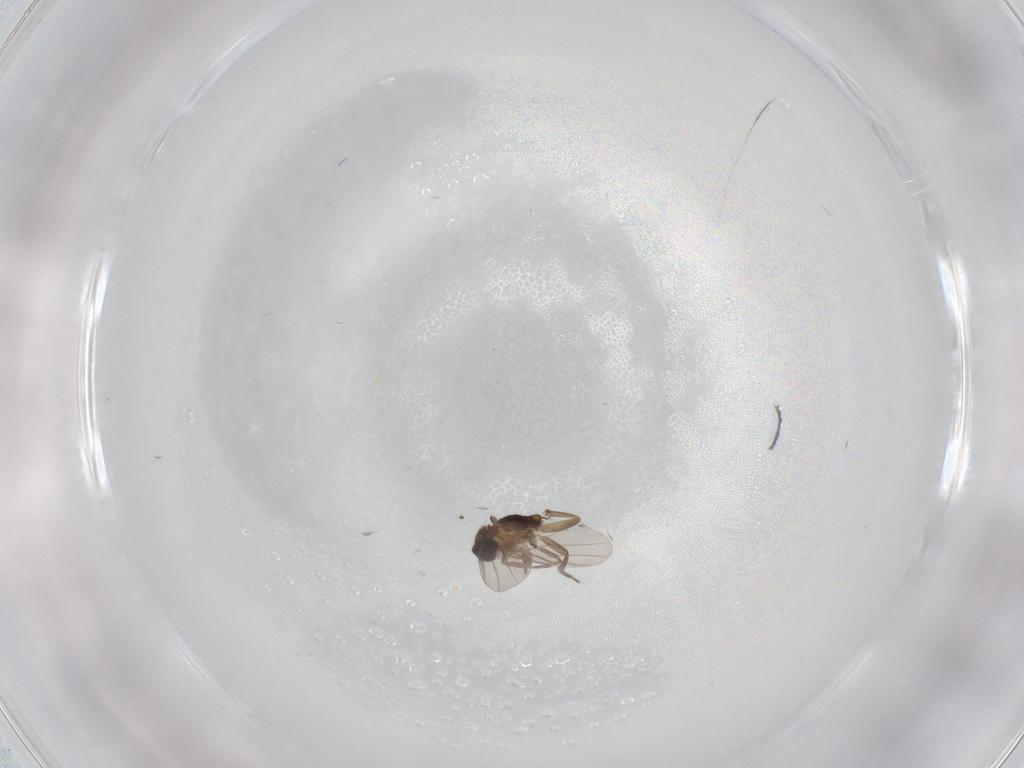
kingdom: Animalia
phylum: Arthropoda
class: Insecta
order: Diptera
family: Phoridae
